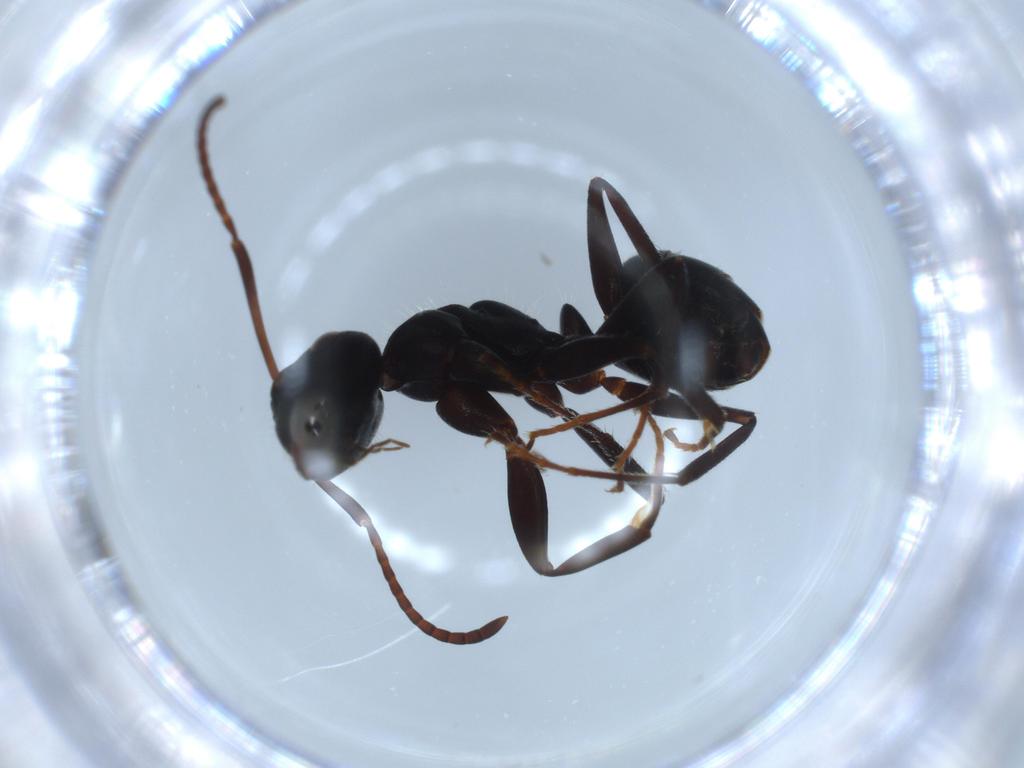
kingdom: Animalia
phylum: Arthropoda
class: Insecta
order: Hymenoptera
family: Formicidae
